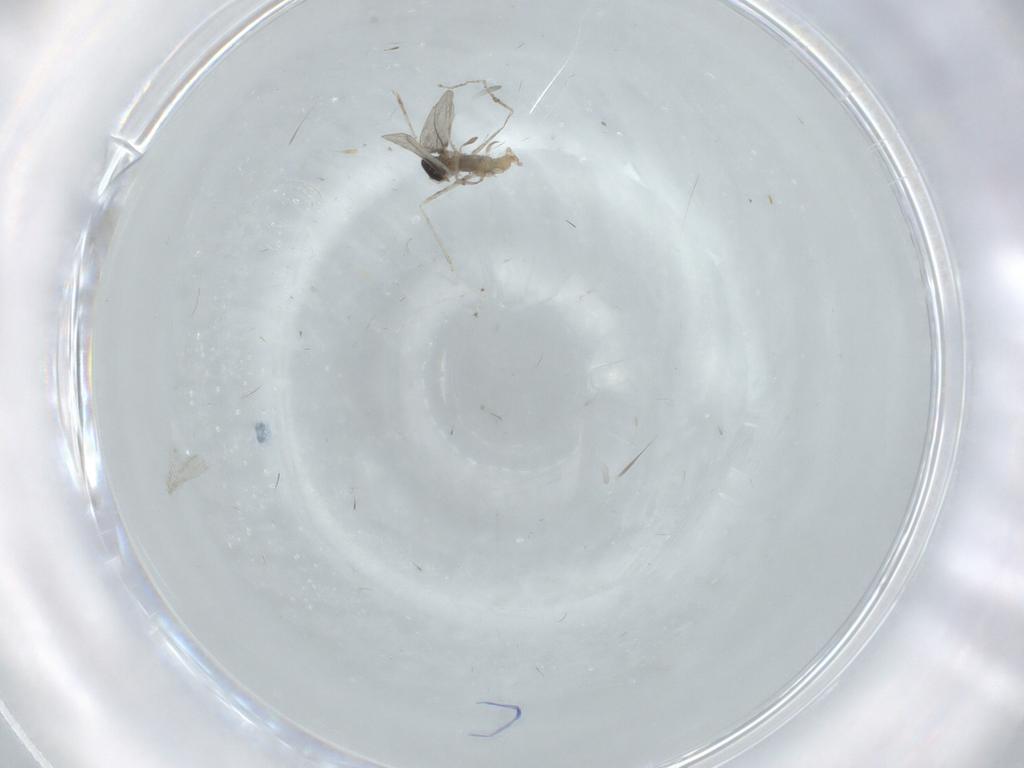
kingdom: Animalia
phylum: Arthropoda
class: Insecta
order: Diptera
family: Cecidomyiidae
